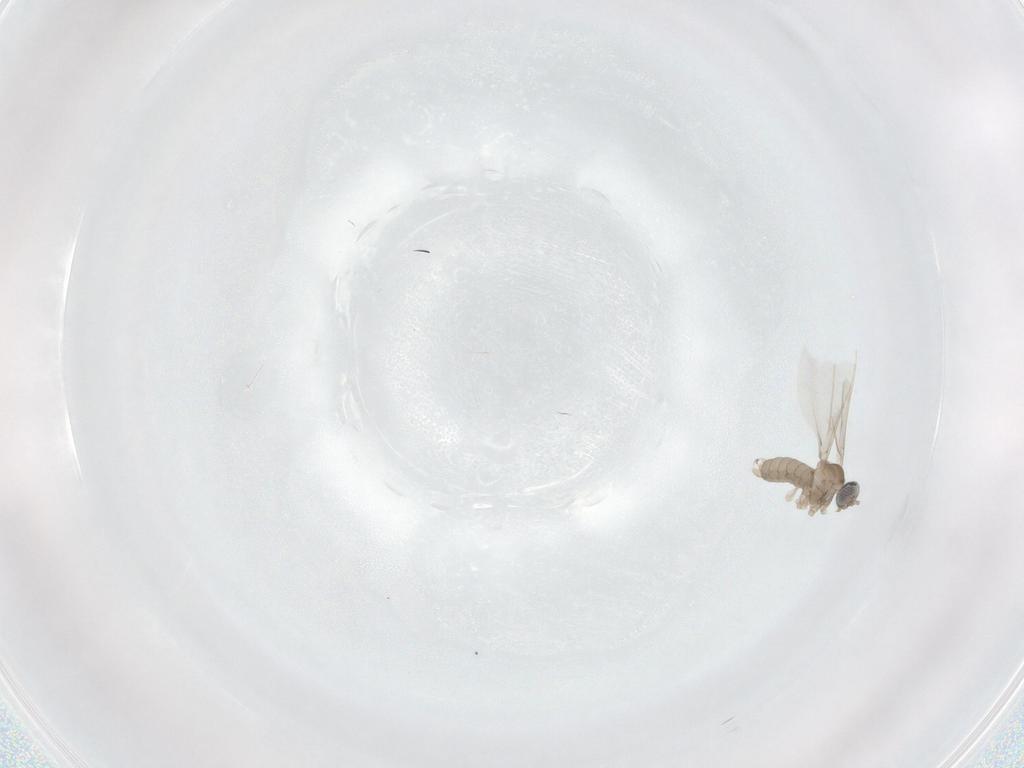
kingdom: Animalia
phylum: Arthropoda
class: Insecta
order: Diptera
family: Cecidomyiidae
